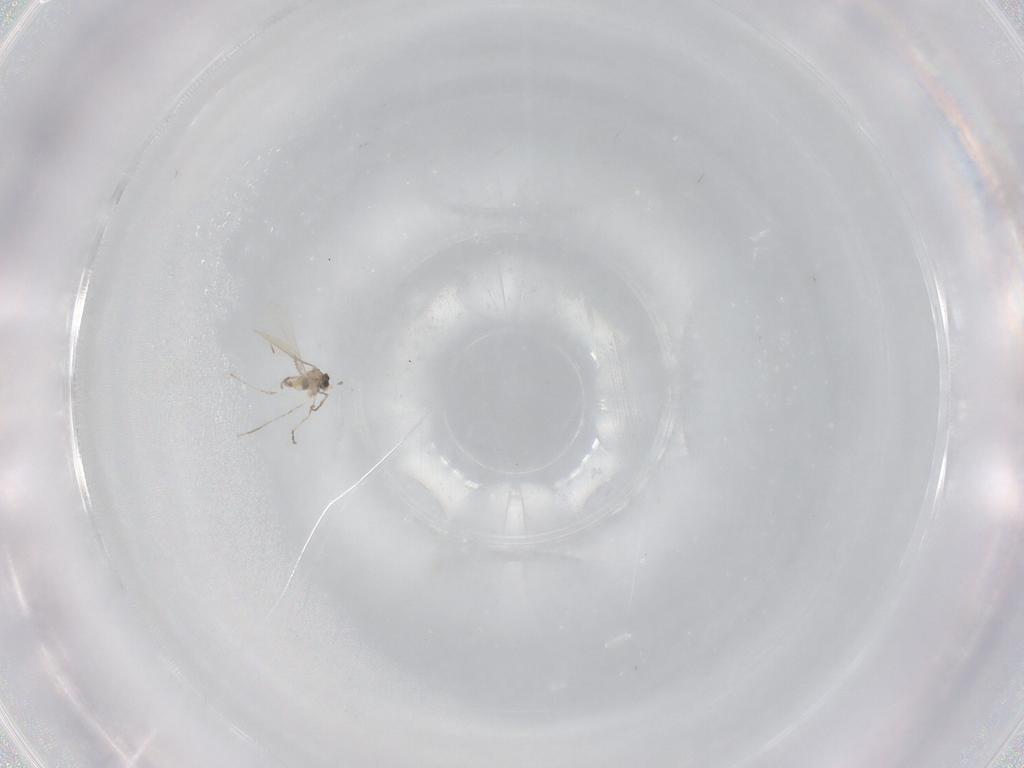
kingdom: Animalia
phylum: Arthropoda
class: Insecta
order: Diptera
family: Cecidomyiidae
